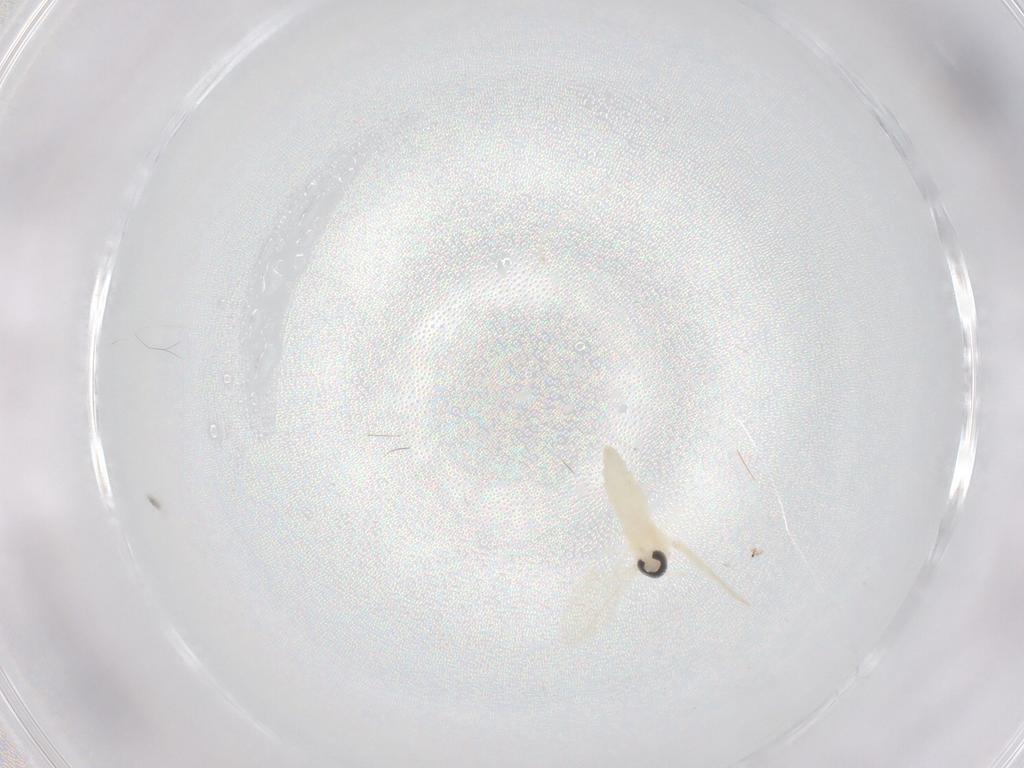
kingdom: Animalia
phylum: Arthropoda
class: Insecta
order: Diptera
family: Cecidomyiidae
